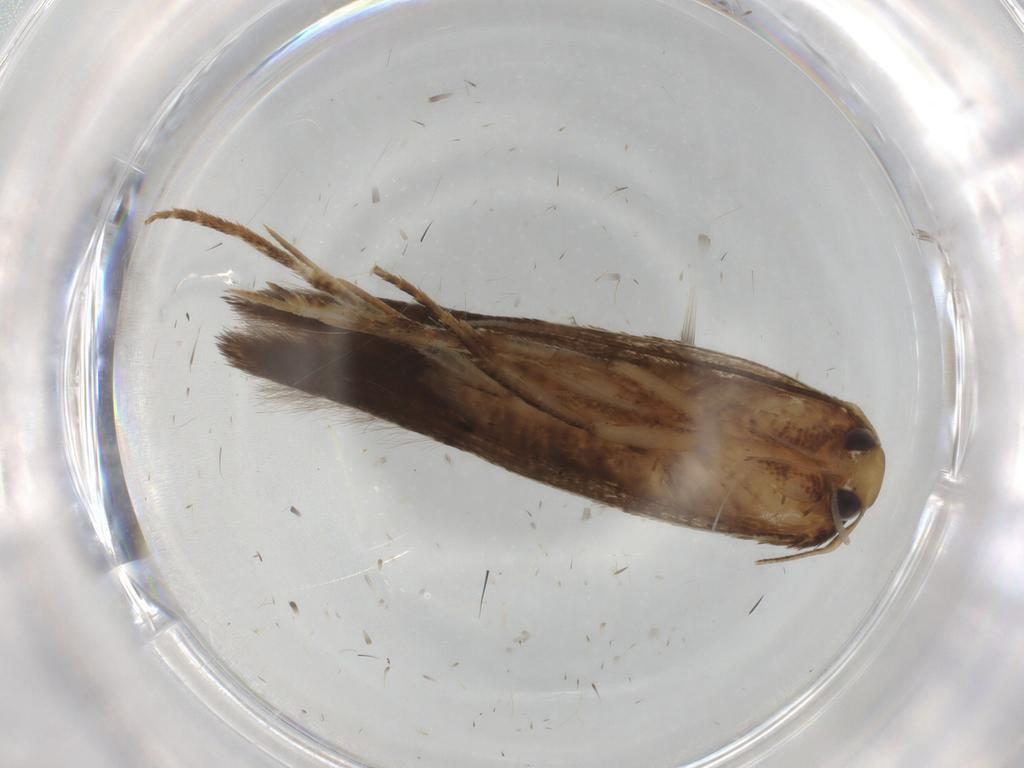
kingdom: Animalia
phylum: Arthropoda
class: Insecta
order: Lepidoptera
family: Cosmopterigidae
